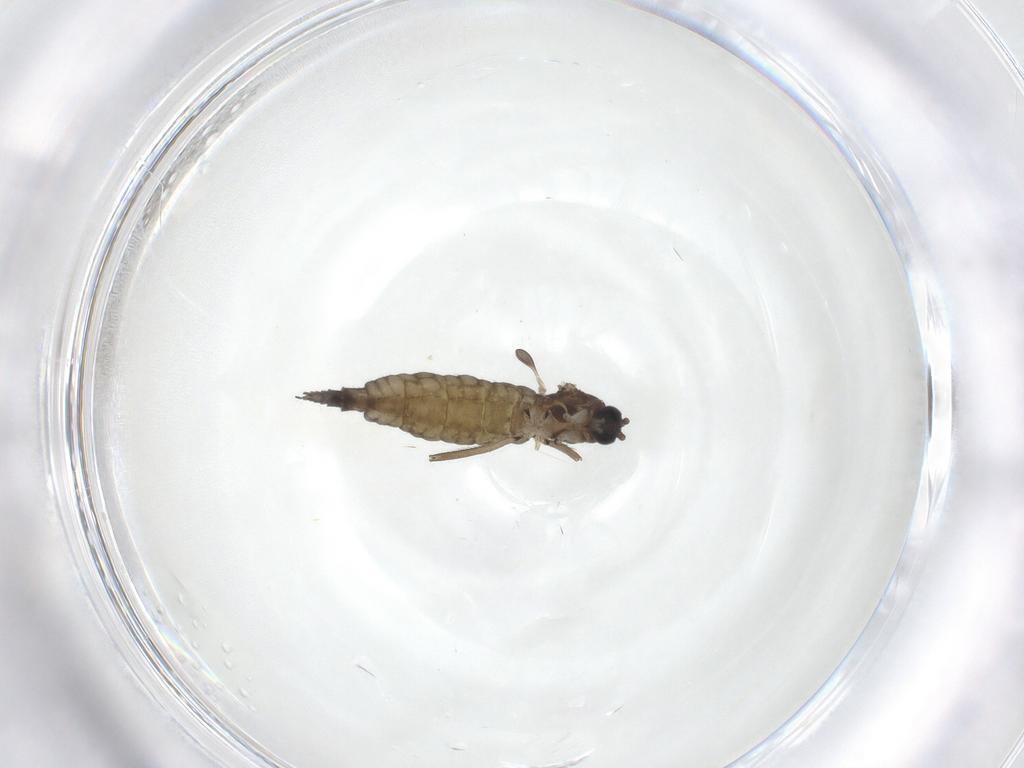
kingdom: Animalia
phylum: Arthropoda
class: Insecta
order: Diptera
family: Sciaridae
